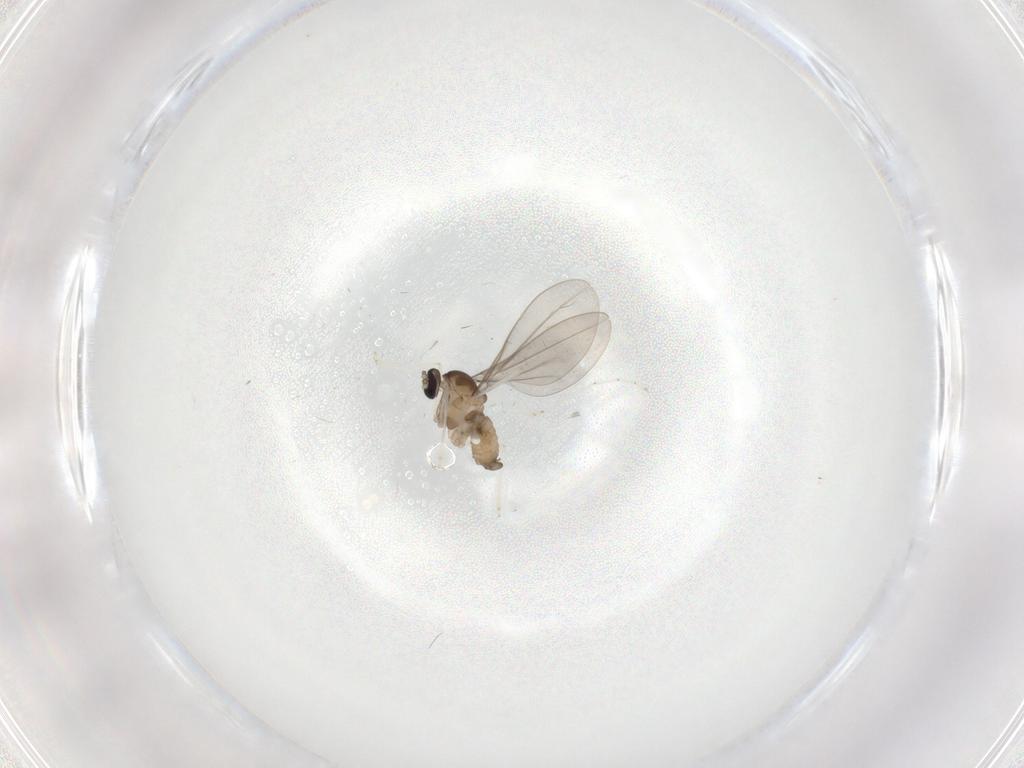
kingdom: Animalia
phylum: Arthropoda
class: Insecta
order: Diptera
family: Cecidomyiidae
